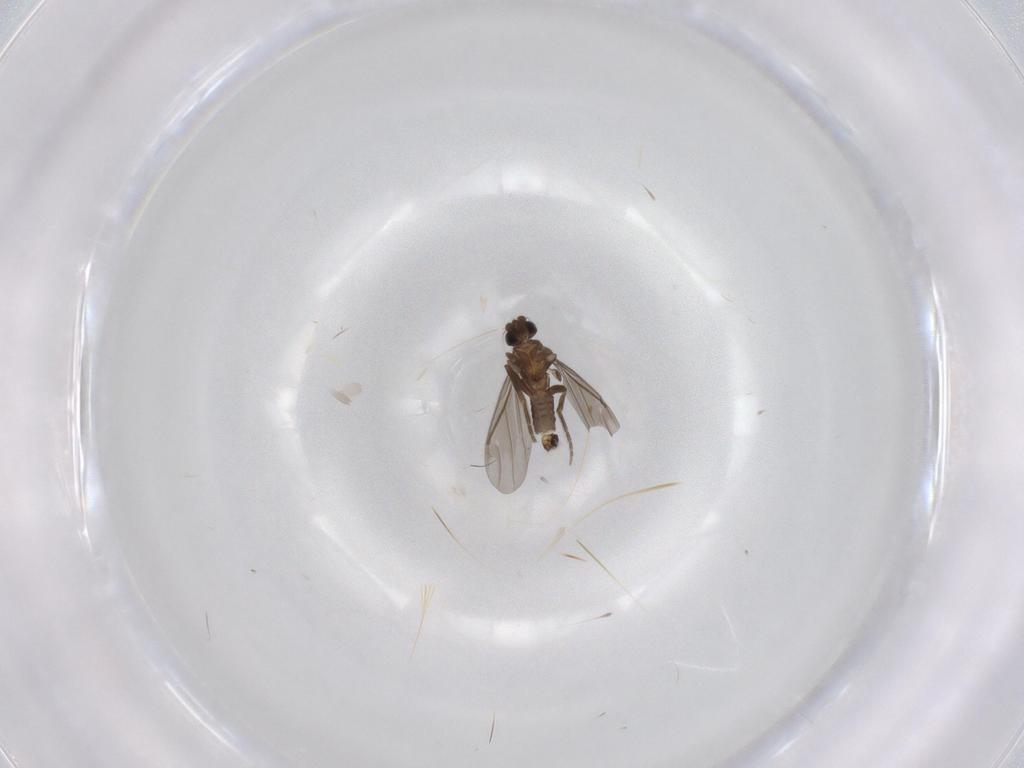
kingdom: Animalia
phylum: Arthropoda
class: Insecta
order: Diptera
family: Phoridae
